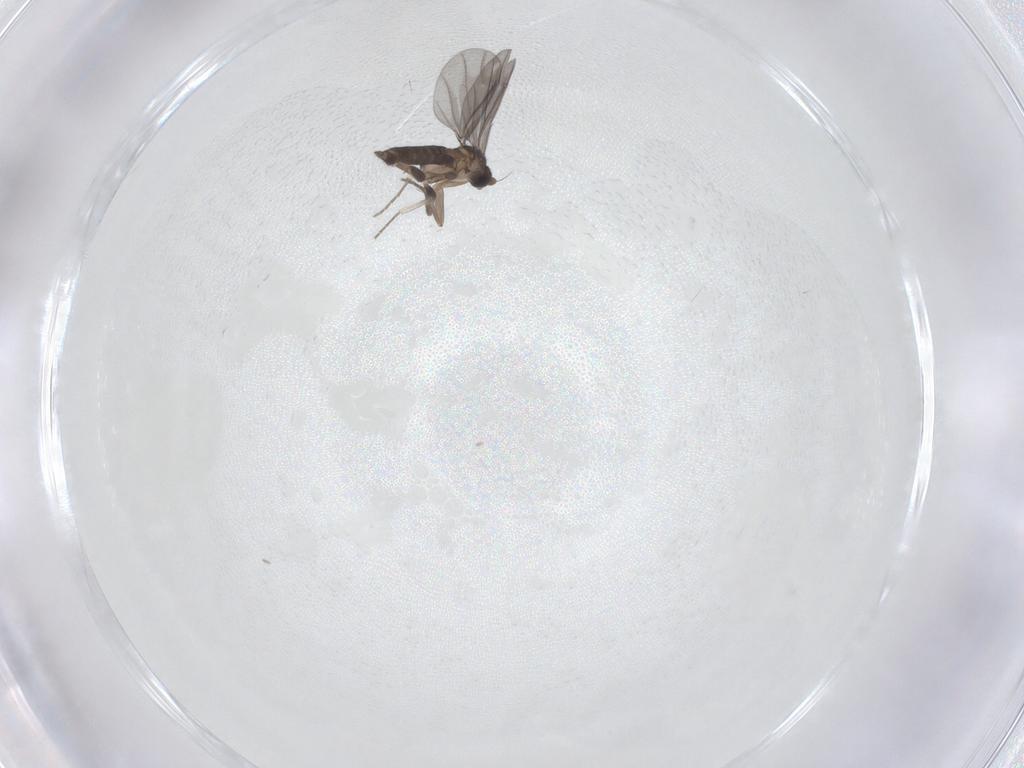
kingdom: Animalia
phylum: Arthropoda
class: Insecta
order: Diptera
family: Phoridae
